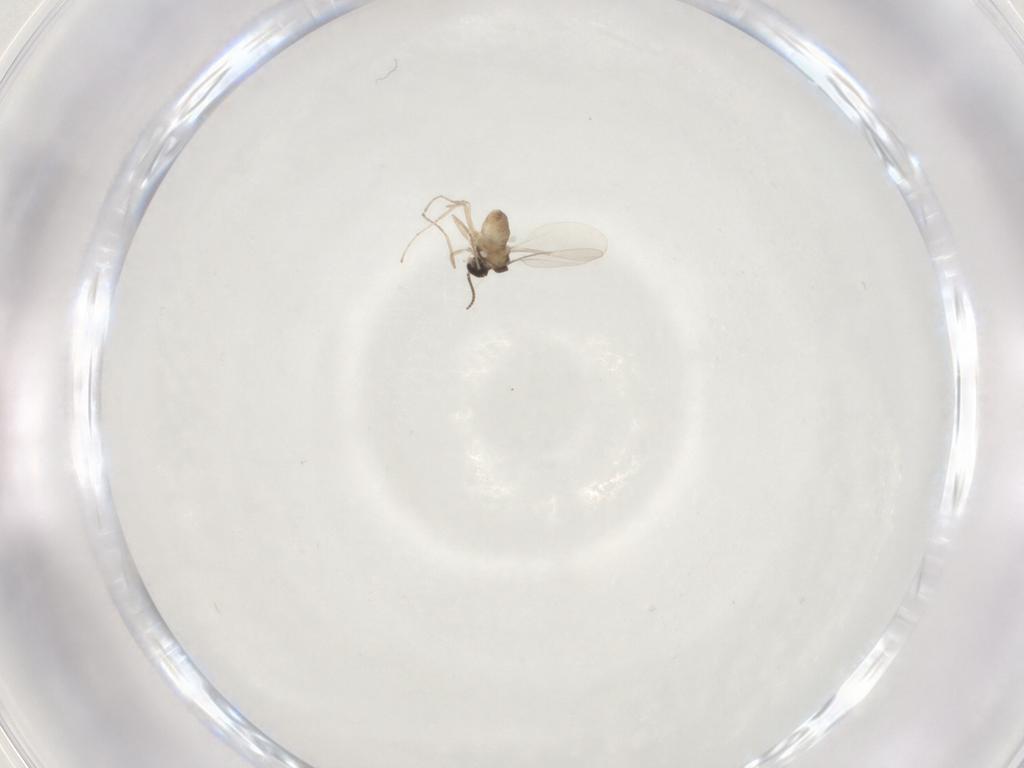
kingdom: Animalia
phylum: Arthropoda
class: Insecta
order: Diptera
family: Cecidomyiidae
